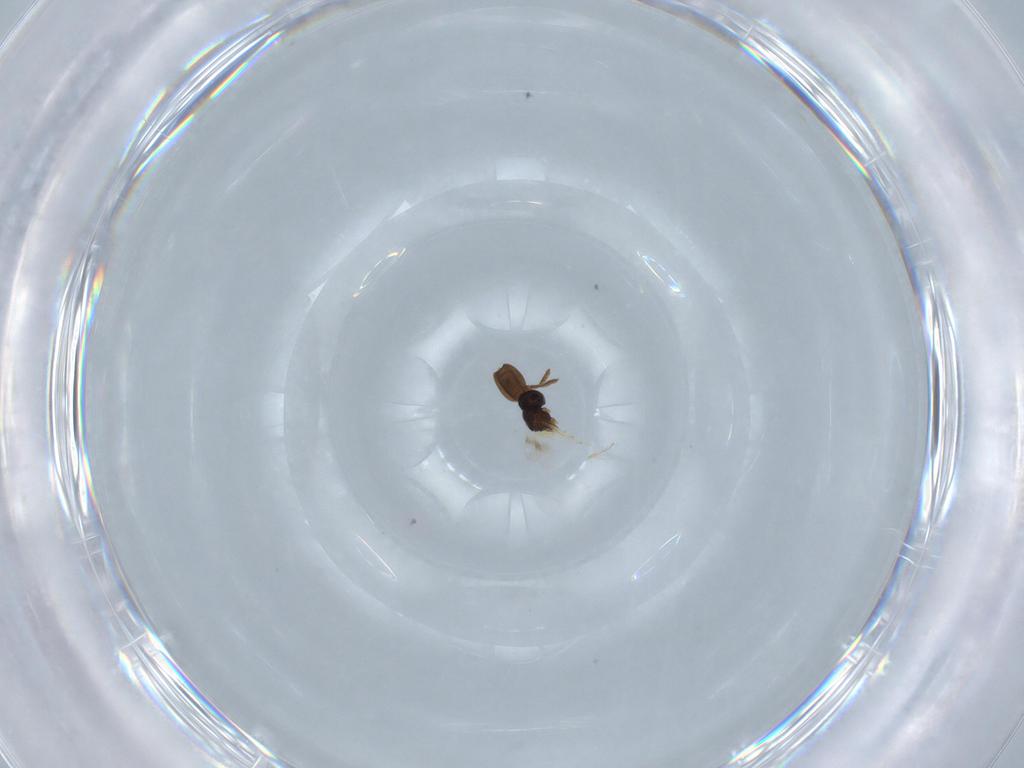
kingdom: Animalia
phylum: Arthropoda
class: Insecta
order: Hymenoptera
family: Scelionidae
